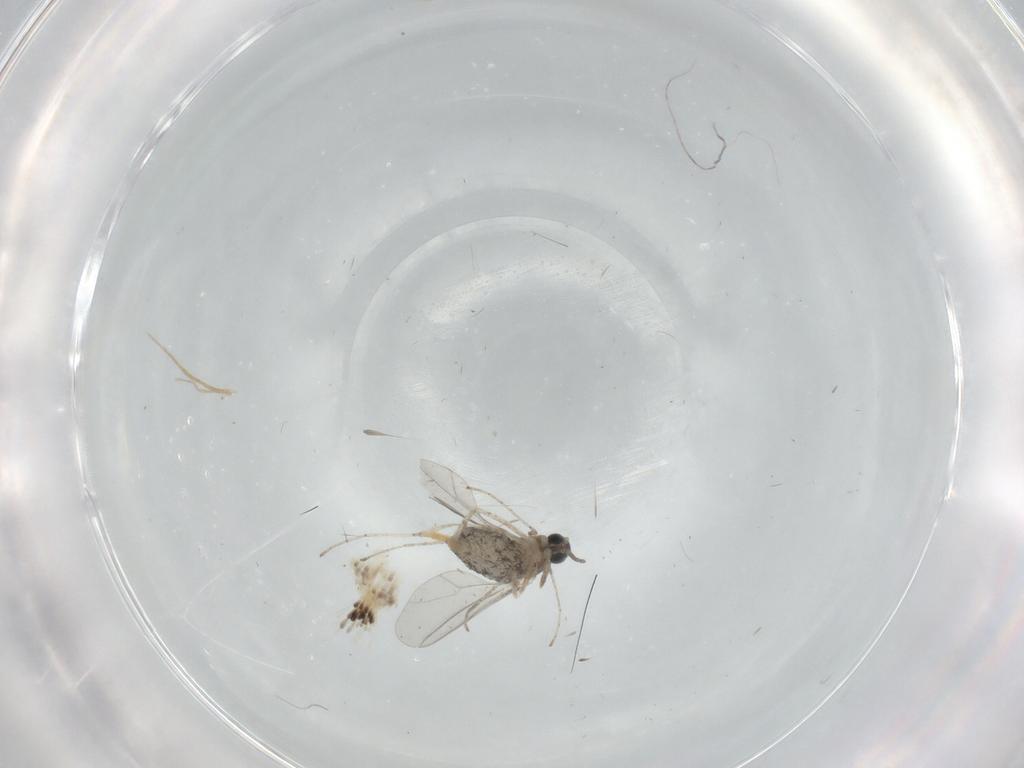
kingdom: Animalia
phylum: Arthropoda
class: Insecta
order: Diptera
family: Cecidomyiidae
